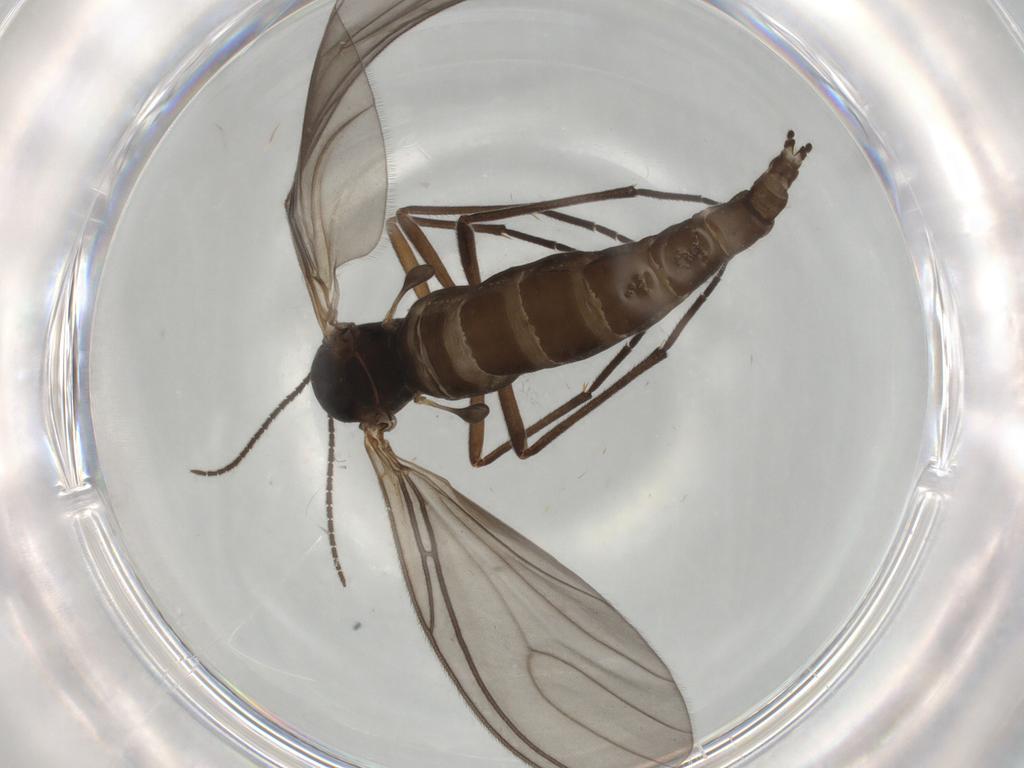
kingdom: Animalia
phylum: Arthropoda
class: Insecta
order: Diptera
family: Sciaridae
